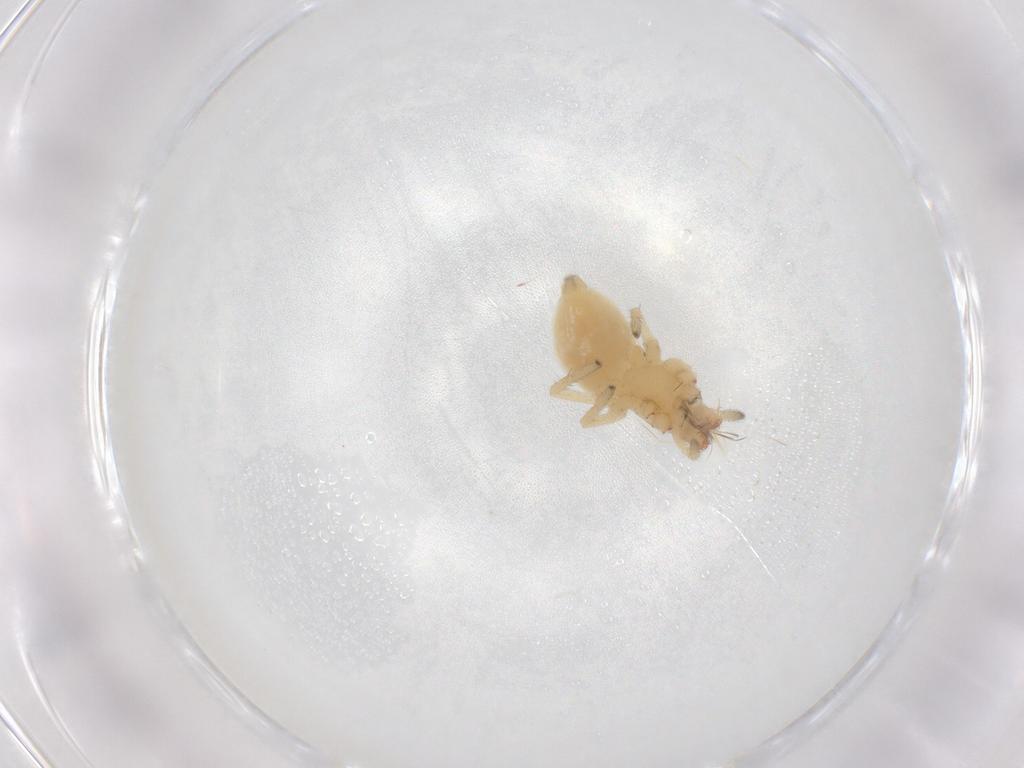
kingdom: Animalia
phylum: Arthropoda
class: Arachnida
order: Araneae
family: Cheiracanthiidae
